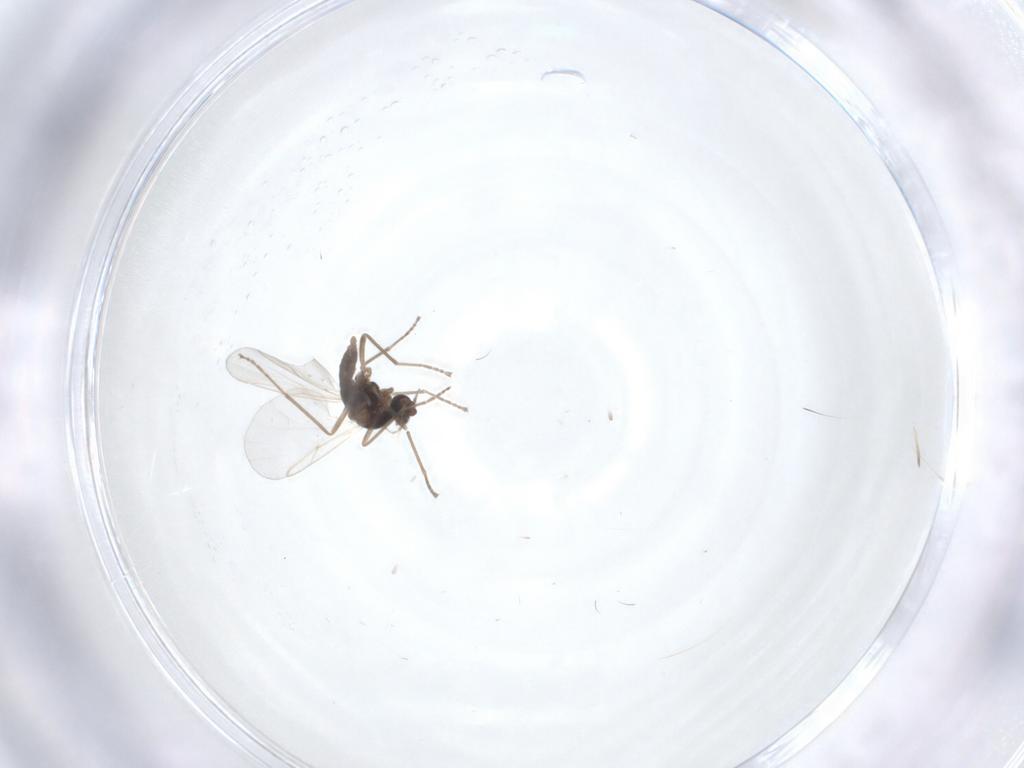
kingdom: Animalia
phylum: Arthropoda
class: Insecta
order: Diptera
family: Cecidomyiidae
